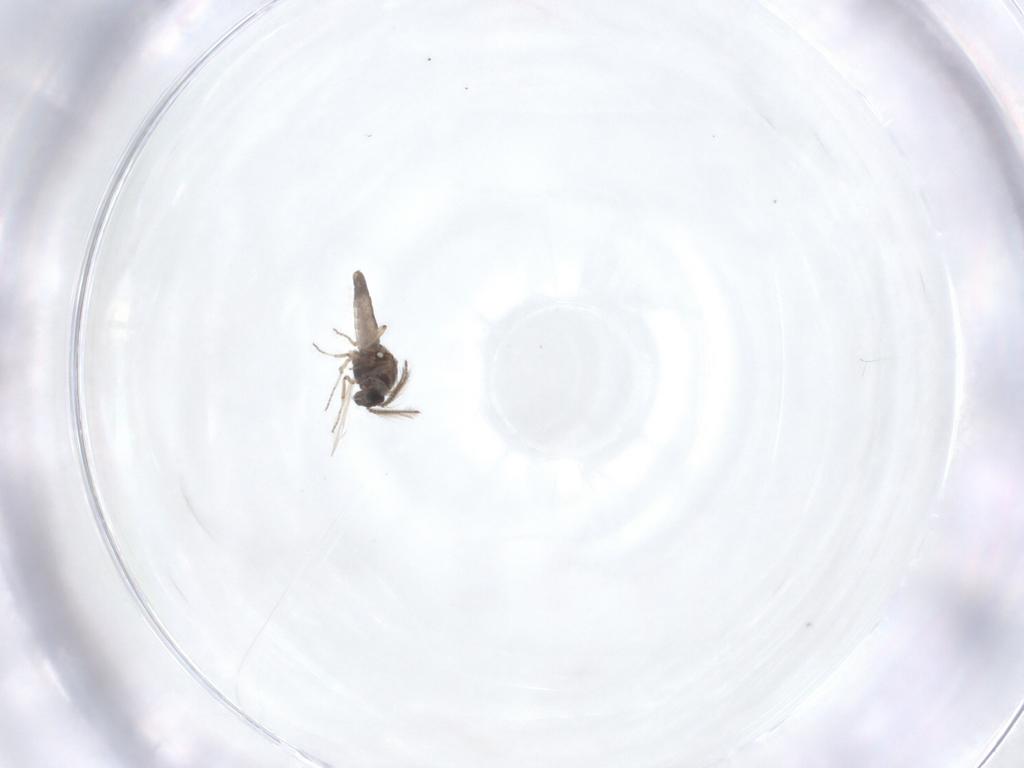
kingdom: Animalia
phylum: Arthropoda
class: Insecta
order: Diptera
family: Ceratopogonidae
